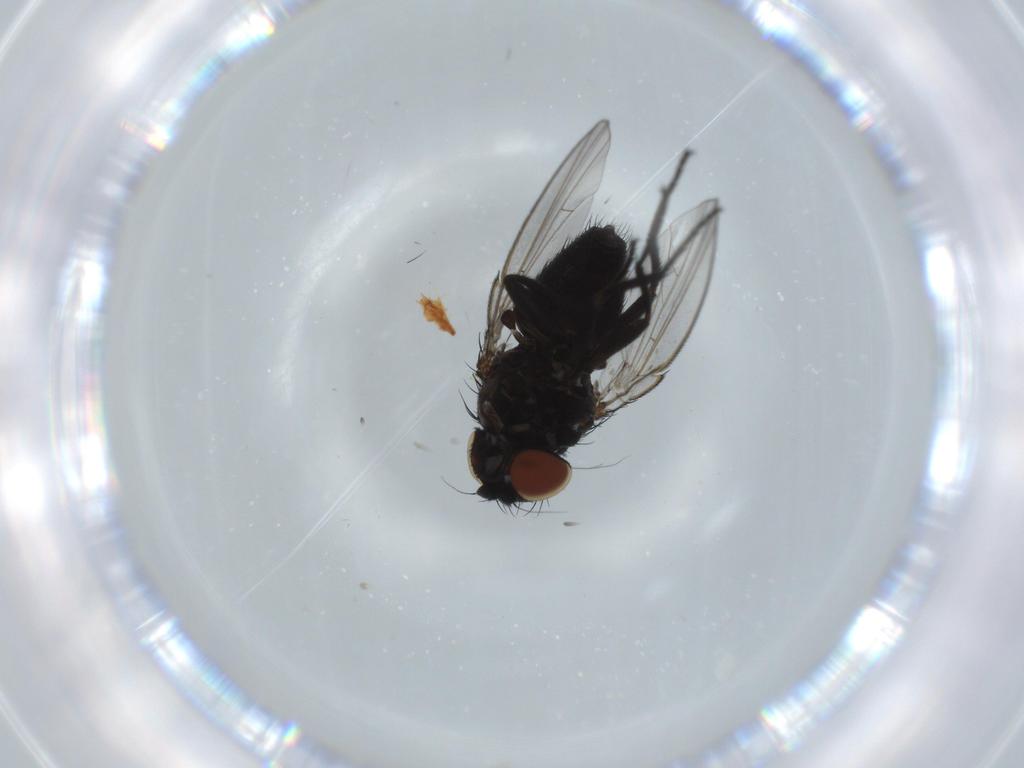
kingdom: Animalia
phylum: Arthropoda
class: Insecta
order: Diptera
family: Milichiidae
